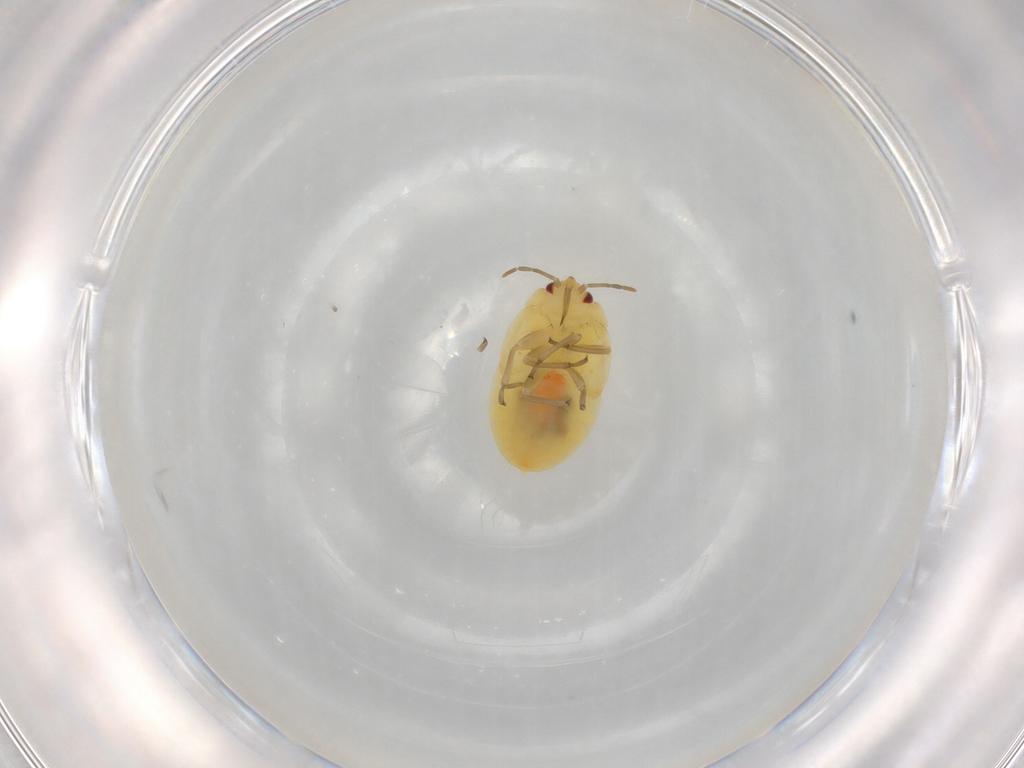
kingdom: Animalia
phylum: Arthropoda
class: Insecta
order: Hemiptera
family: Anthocoridae
